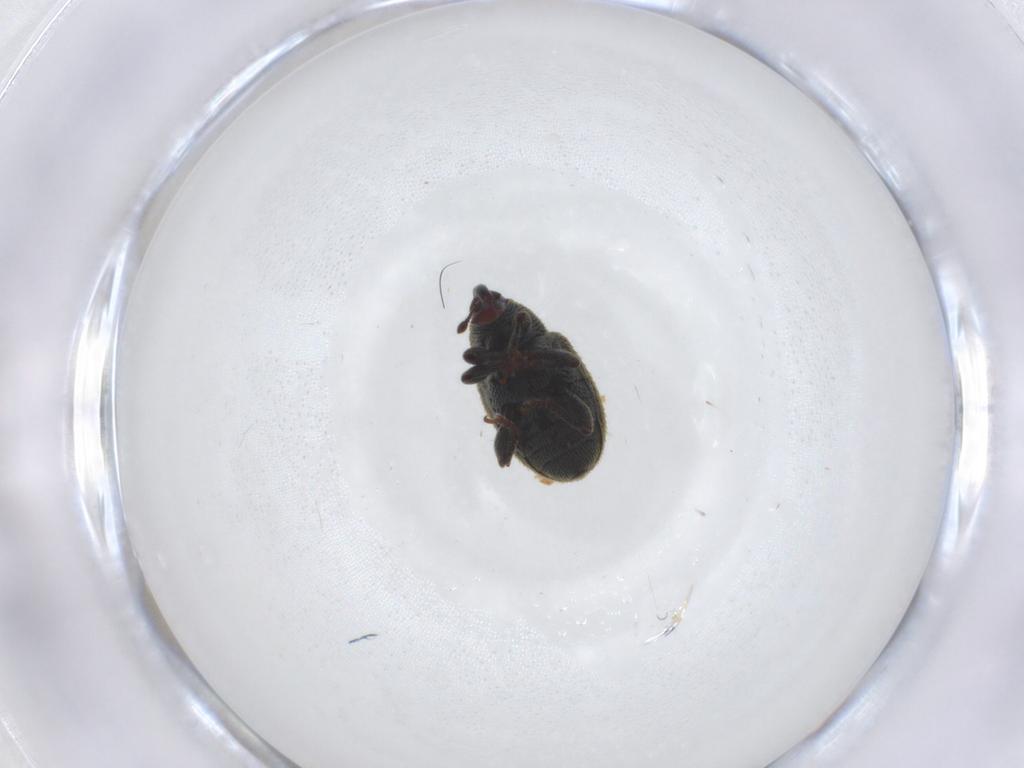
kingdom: Animalia
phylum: Arthropoda
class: Insecta
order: Coleoptera
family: Curculionidae
